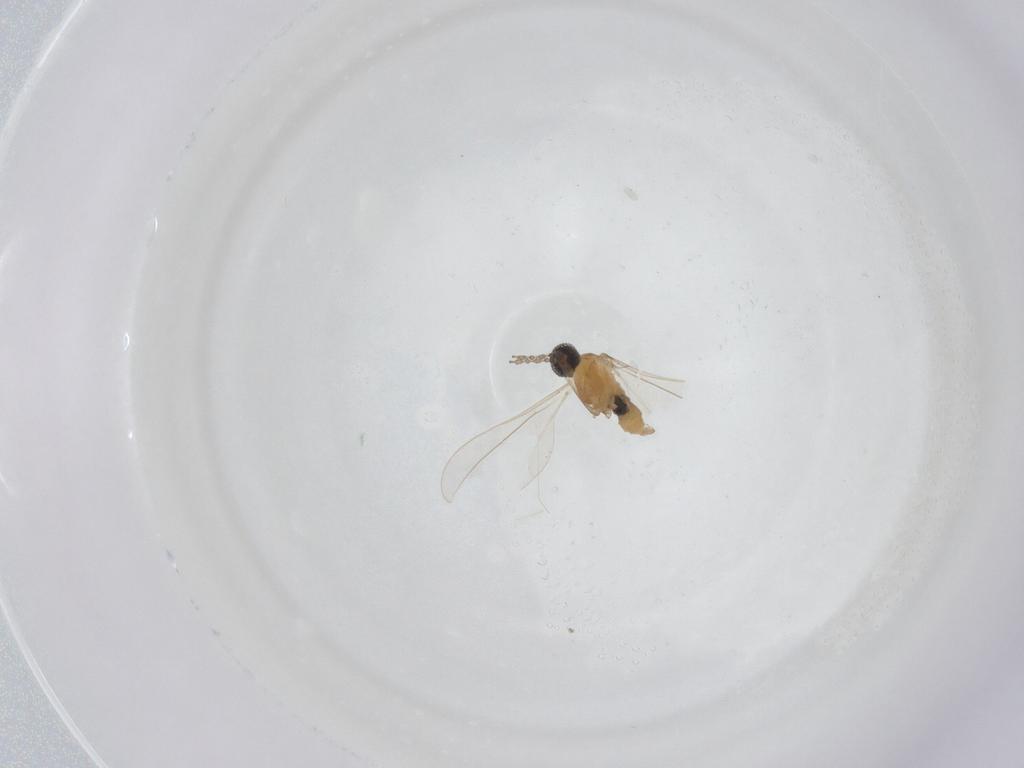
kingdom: Animalia
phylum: Arthropoda
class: Insecta
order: Diptera
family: Cecidomyiidae
